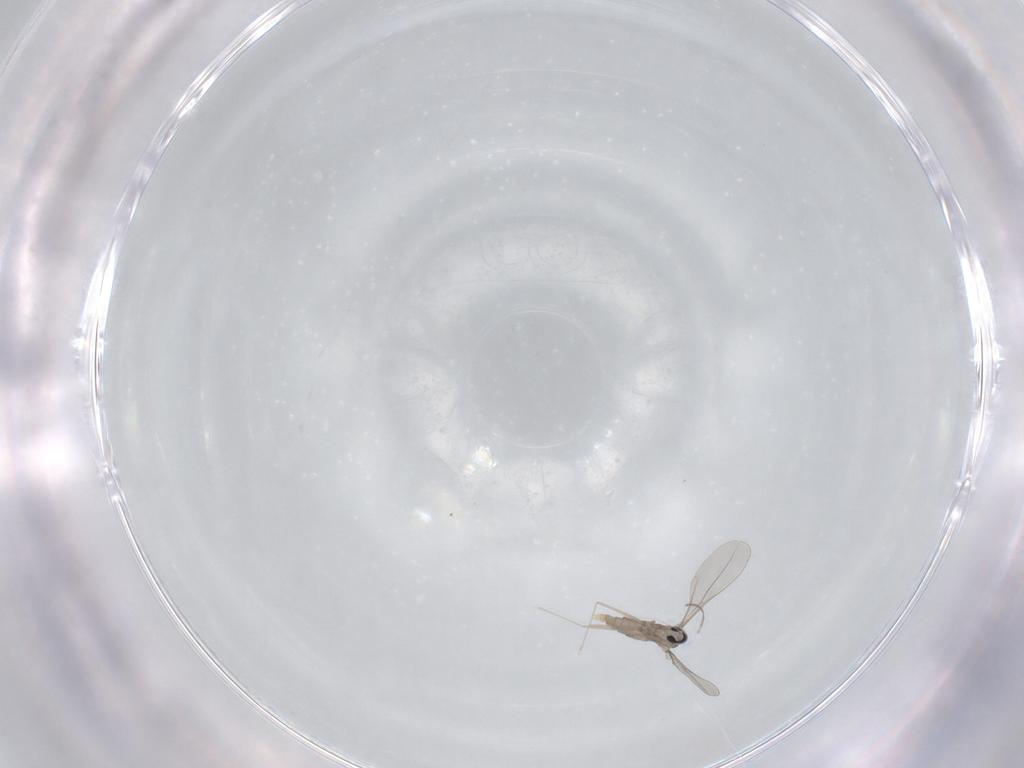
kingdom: Animalia
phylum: Arthropoda
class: Insecta
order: Diptera
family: Cecidomyiidae
